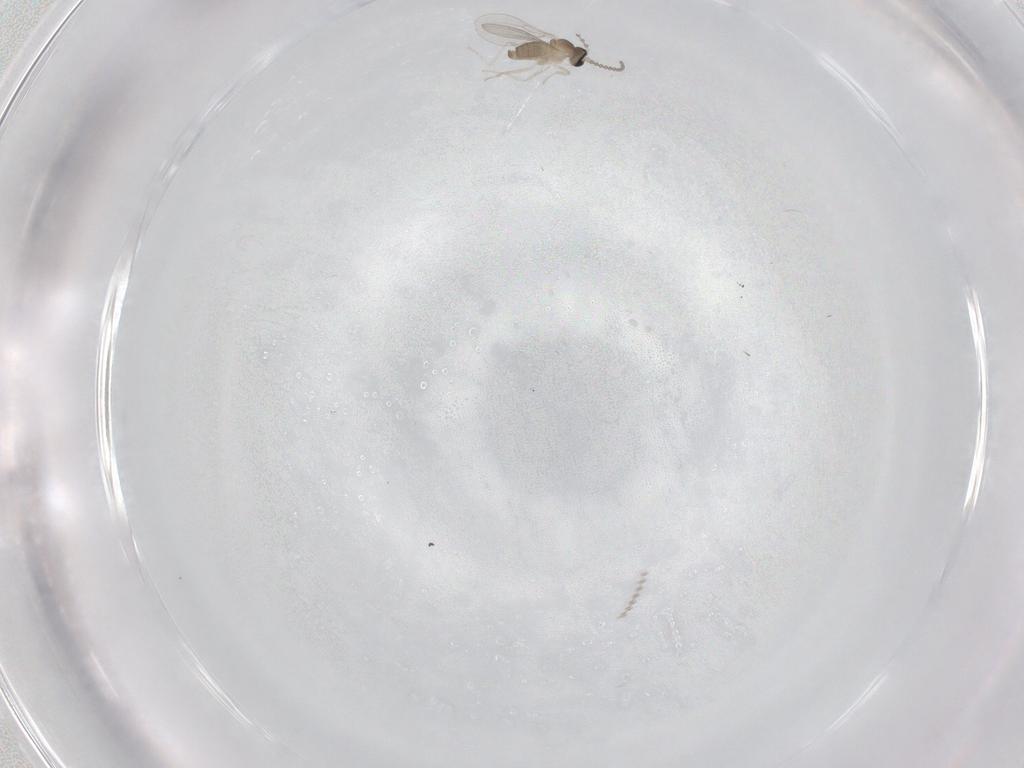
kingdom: Animalia
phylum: Arthropoda
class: Insecta
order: Diptera
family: Cecidomyiidae
